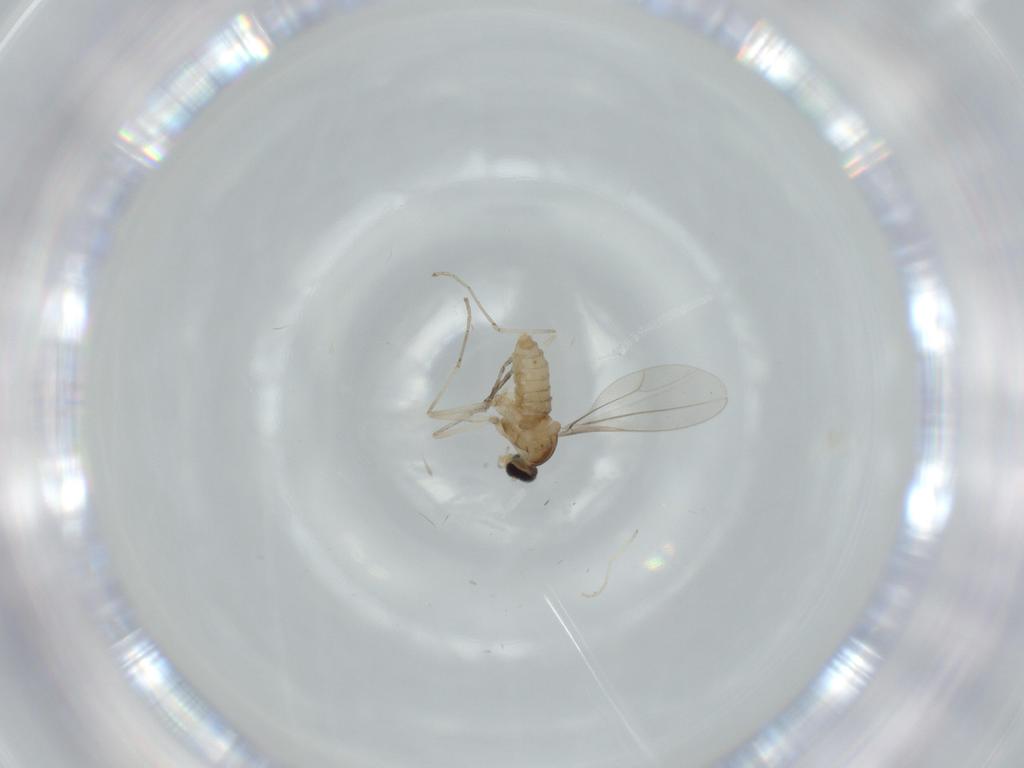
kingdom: Animalia
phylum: Arthropoda
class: Insecta
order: Diptera
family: Cecidomyiidae
